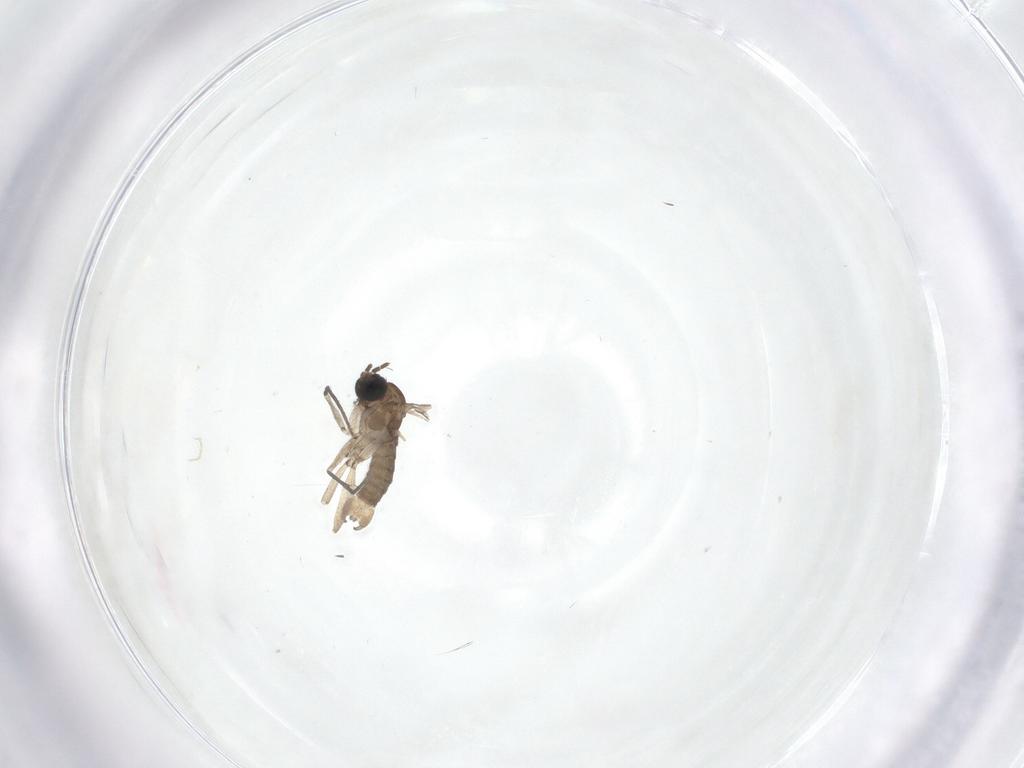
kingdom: Animalia
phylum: Arthropoda
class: Insecta
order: Diptera
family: Sciaridae
